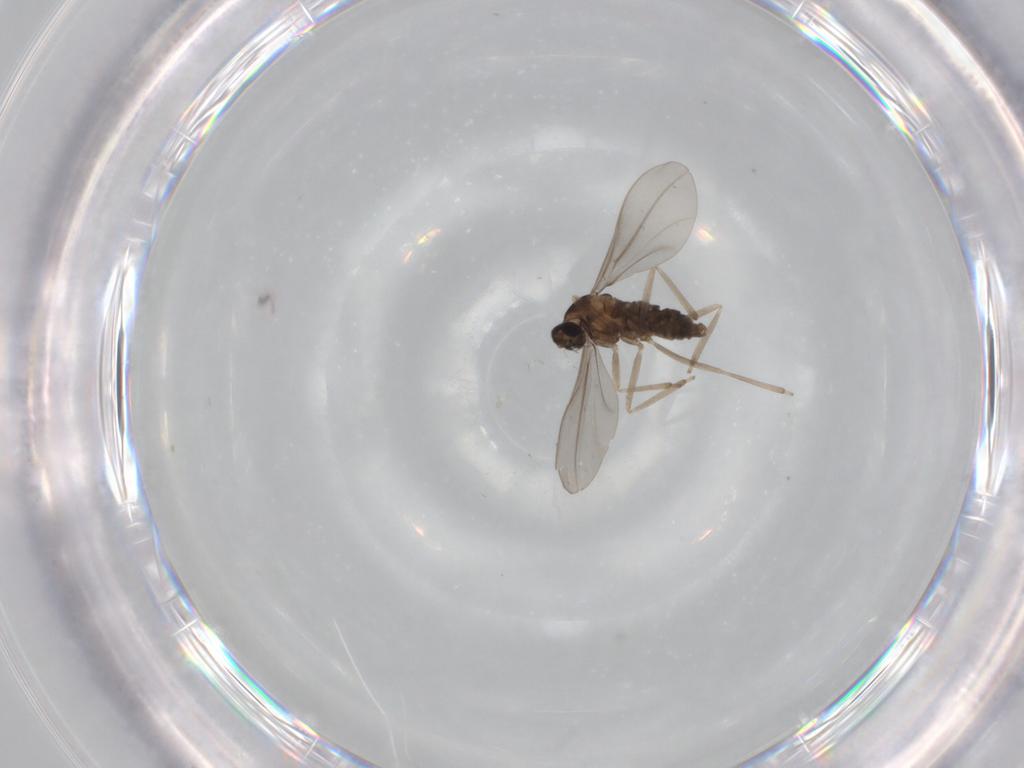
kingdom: Animalia
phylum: Arthropoda
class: Insecta
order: Diptera
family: Cecidomyiidae
